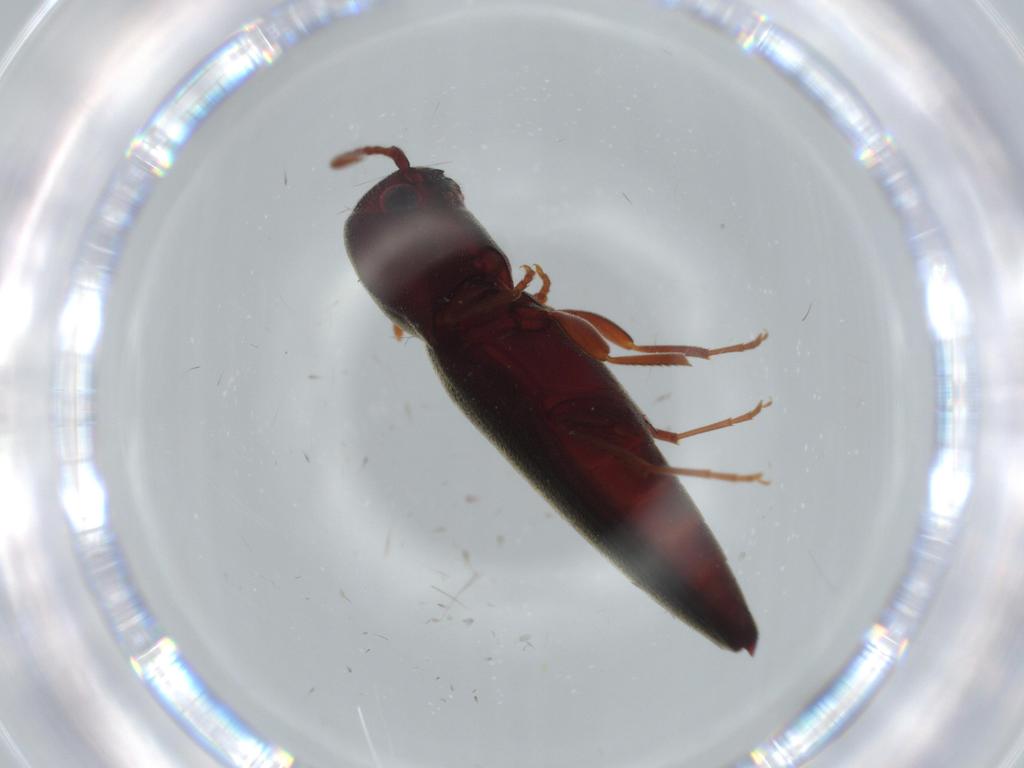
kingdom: Animalia
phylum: Arthropoda
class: Insecta
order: Coleoptera
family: Eucnemidae
